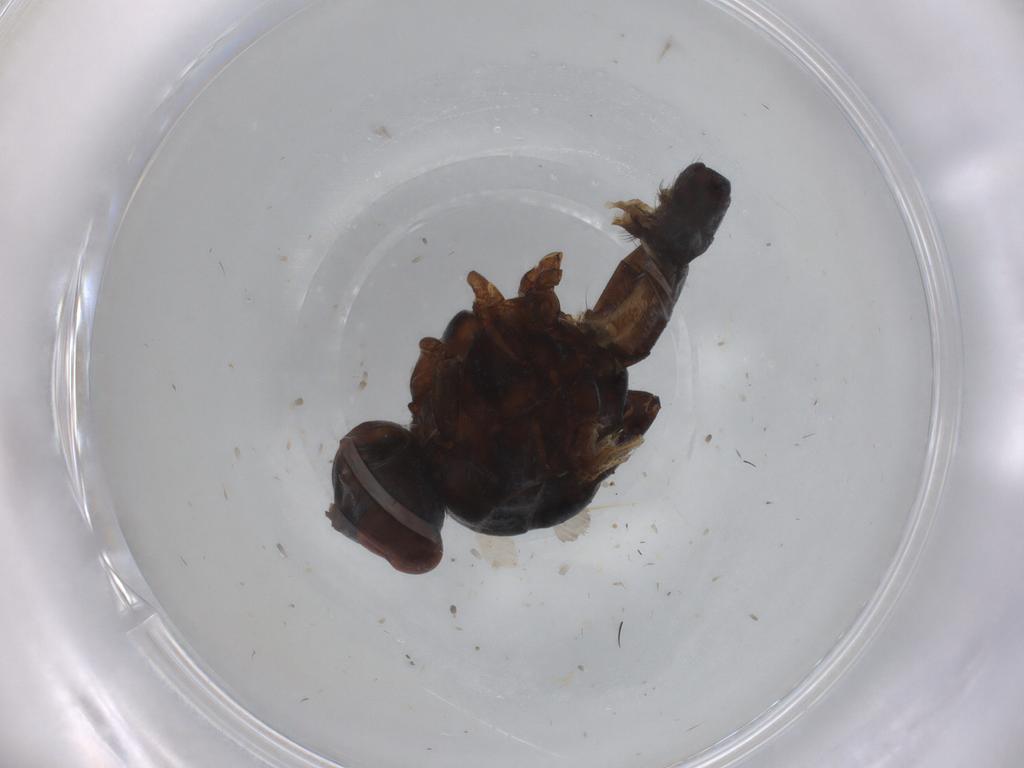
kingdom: Animalia
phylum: Arthropoda
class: Insecta
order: Diptera
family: Anthomyiidae
